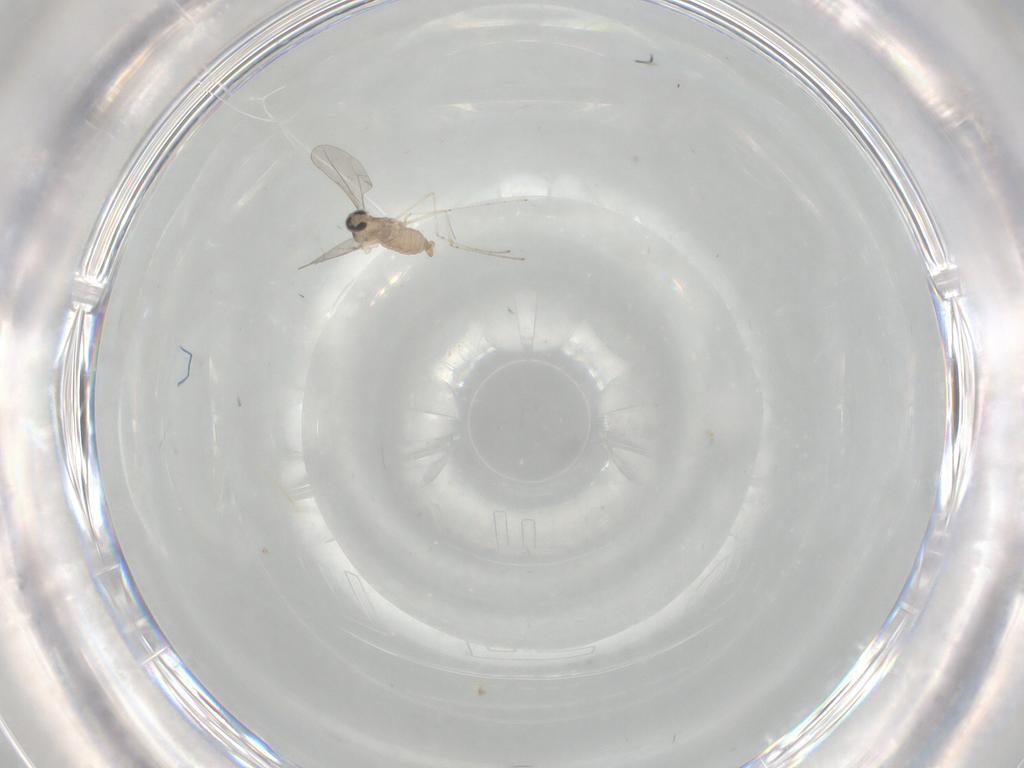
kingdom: Animalia
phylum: Arthropoda
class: Insecta
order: Diptera
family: Cecidomyiidae
